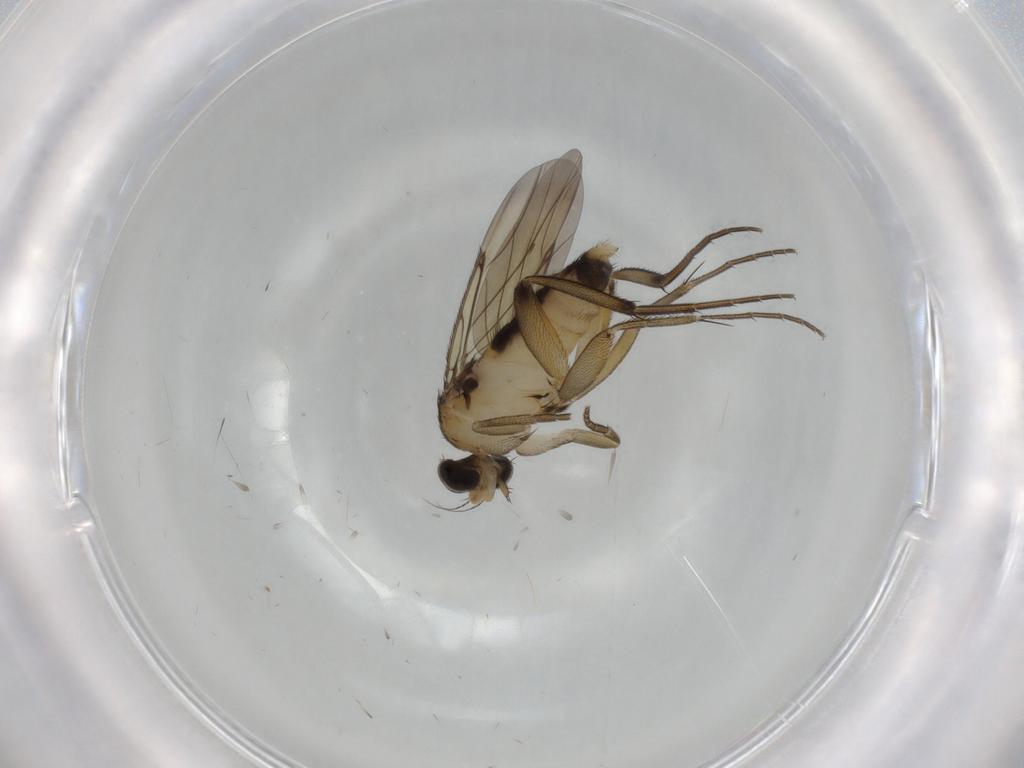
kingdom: Animalia
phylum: Arthropoda
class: Insecta
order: Diptera
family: Phoridae
